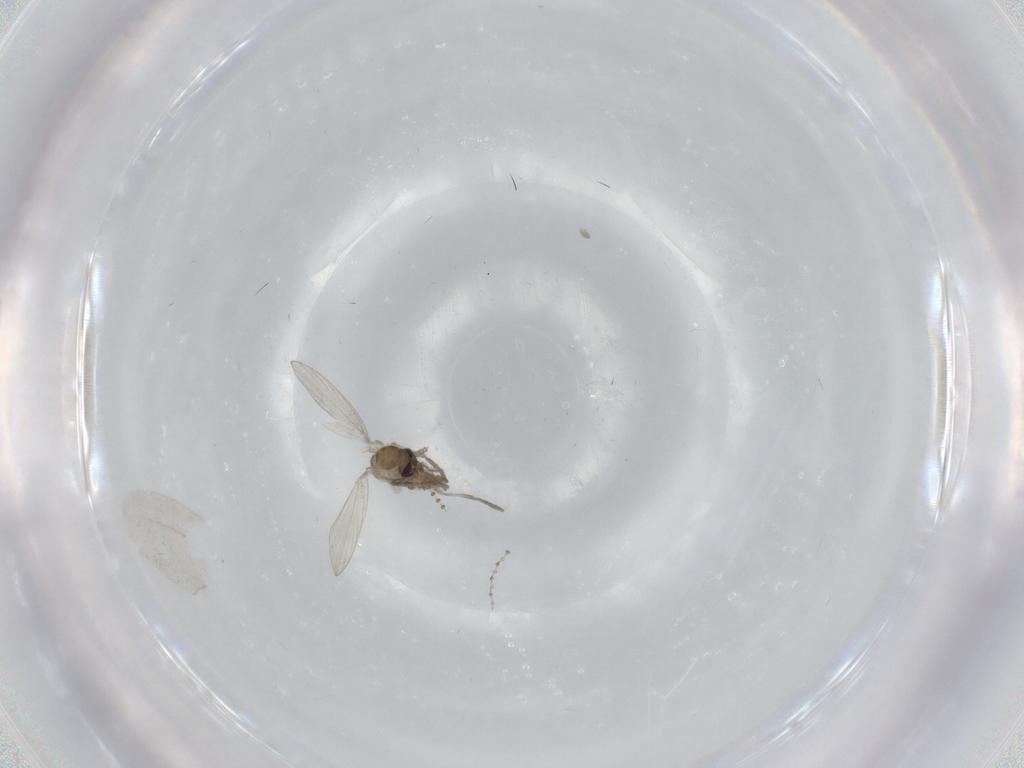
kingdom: Animalia
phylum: Arthropoda
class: Insecta
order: Diptera
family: Psychodidae
